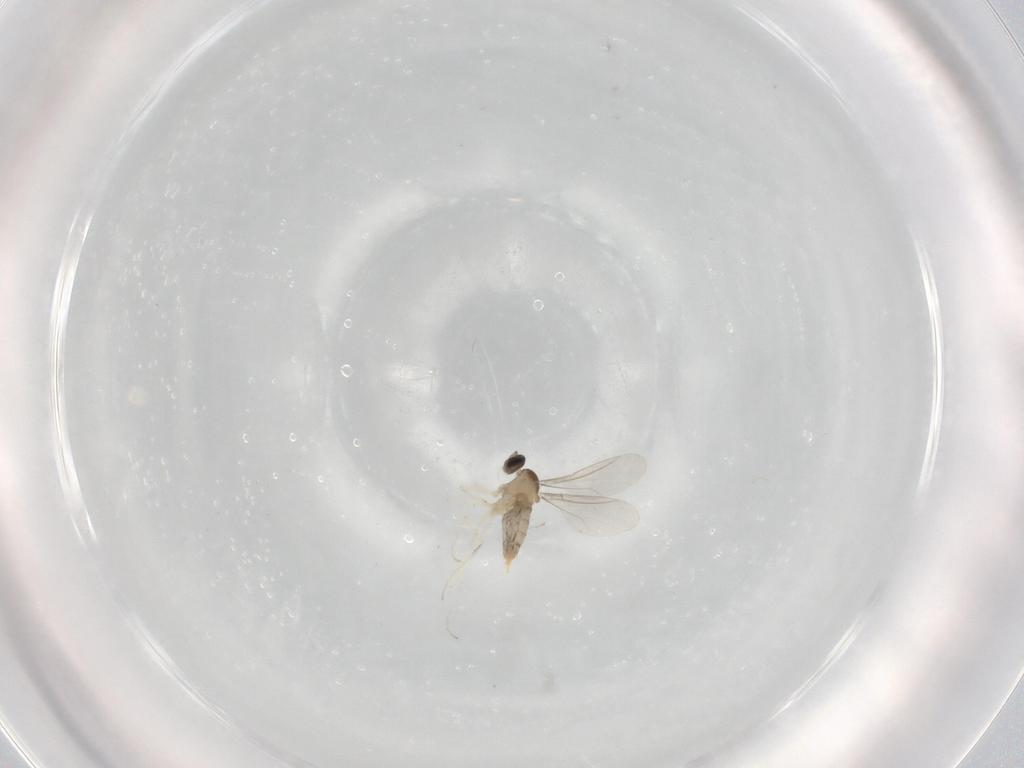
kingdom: Animalia
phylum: Arthropoda
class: Insecta
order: Diptera
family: Cecidomyiidae
